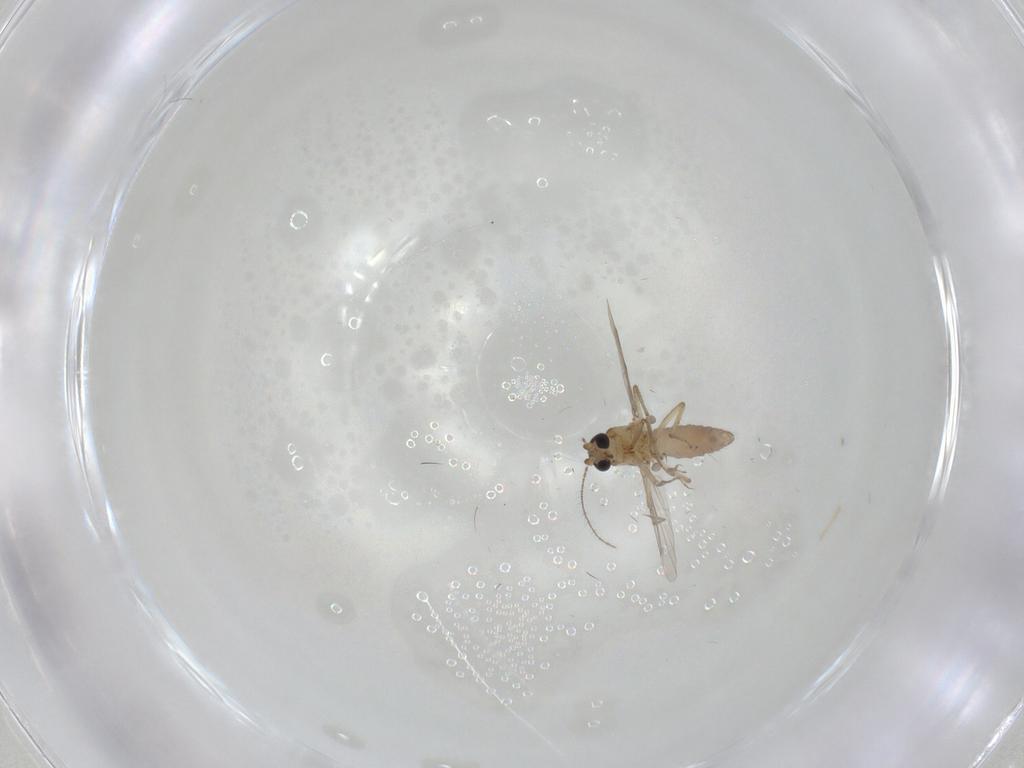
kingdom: Animalia
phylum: Arthropoda
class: Insecta
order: Diptera
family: Ceratopogonidae
